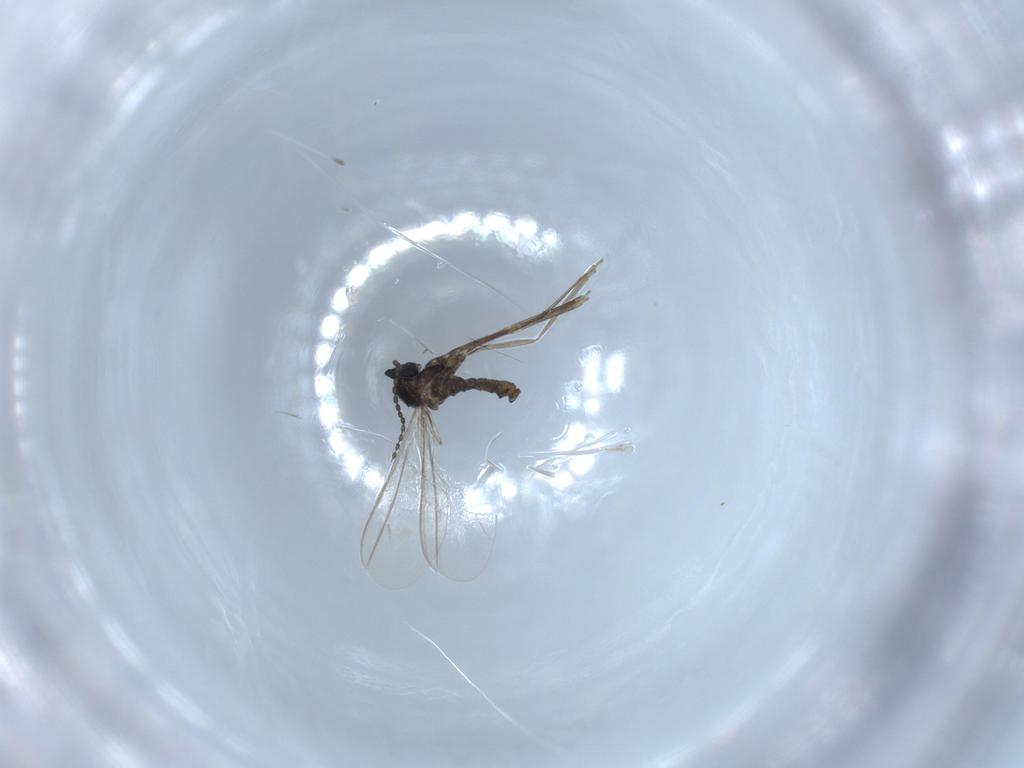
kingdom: Animalia
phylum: Arthropoda
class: Insecta
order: Diptera
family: Cecidomyiidae
